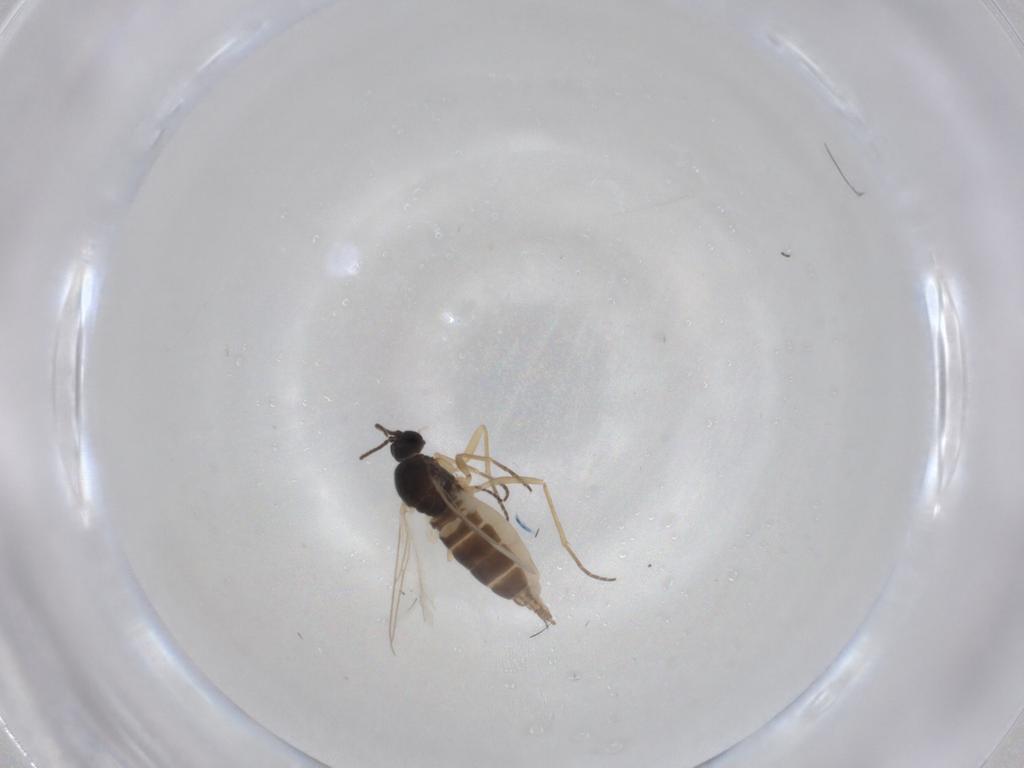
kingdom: Animalia
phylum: Arthropoda
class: Insecta
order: Diptera
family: Sciaridae
